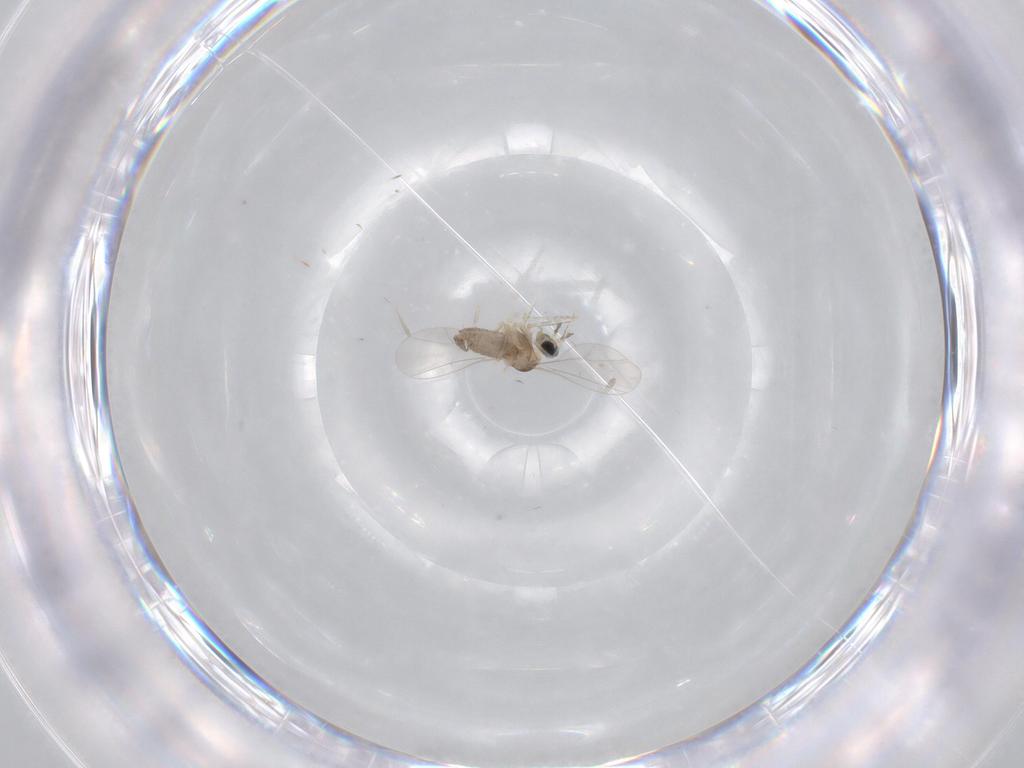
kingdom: Animalia
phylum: Arthropoda
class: Insecta
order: Diptera
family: Cecidomyiidae
